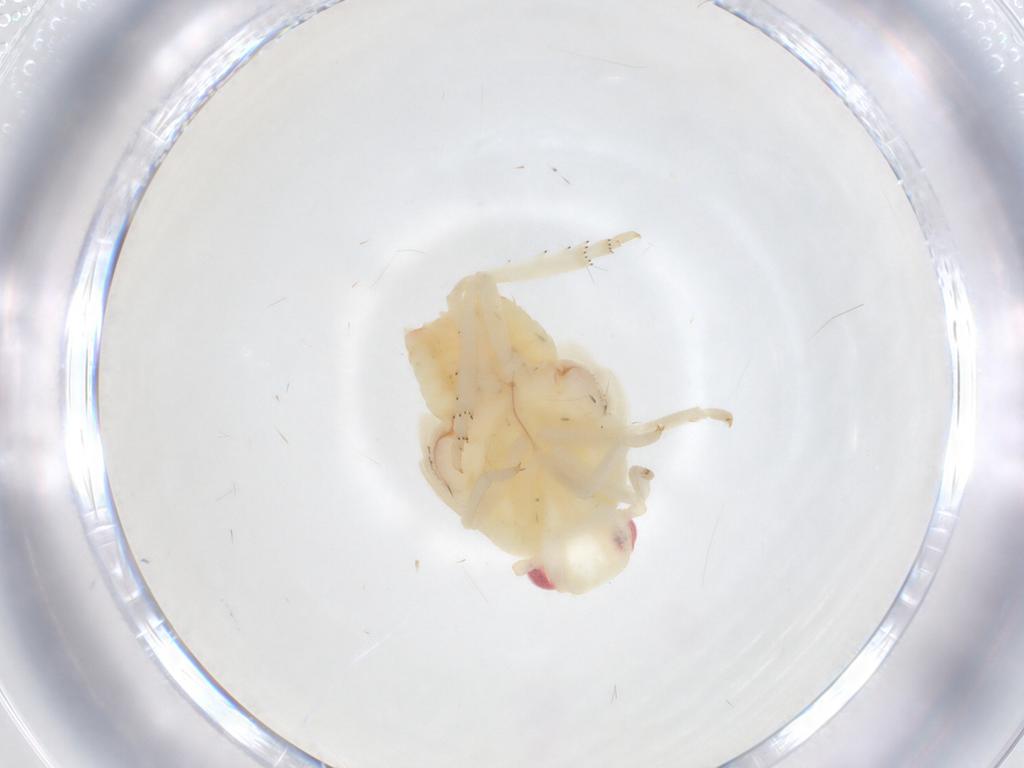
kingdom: Animalia
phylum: Arthropoda
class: Insecta
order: Hemiptera
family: Flatidae
